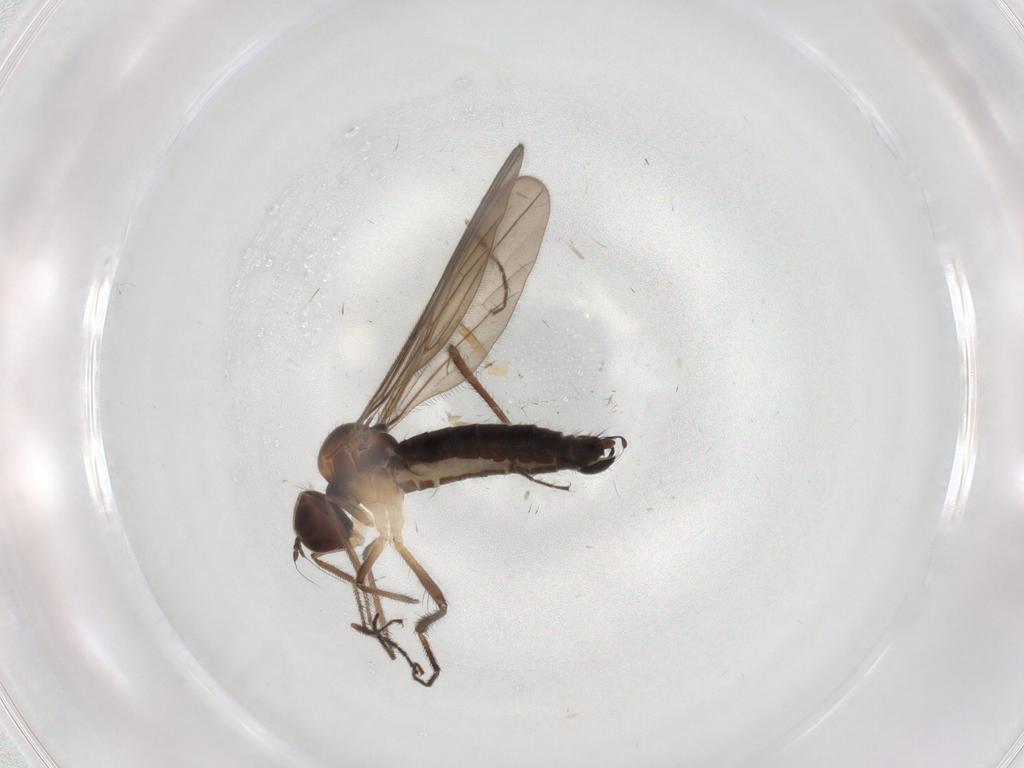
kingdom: Animalia
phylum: Arthropoda
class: Insecta
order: Diptera
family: Hybotidae
